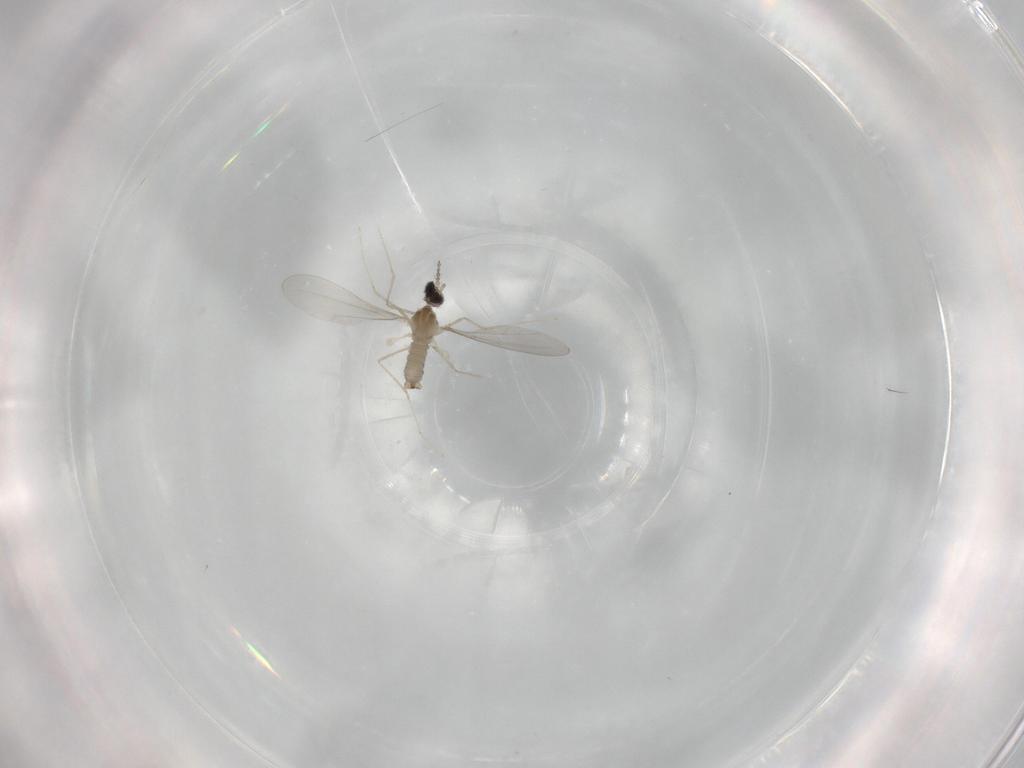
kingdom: Animalia
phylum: Arthropoda
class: Insecta
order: Diptera
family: Cecidomyiidae
